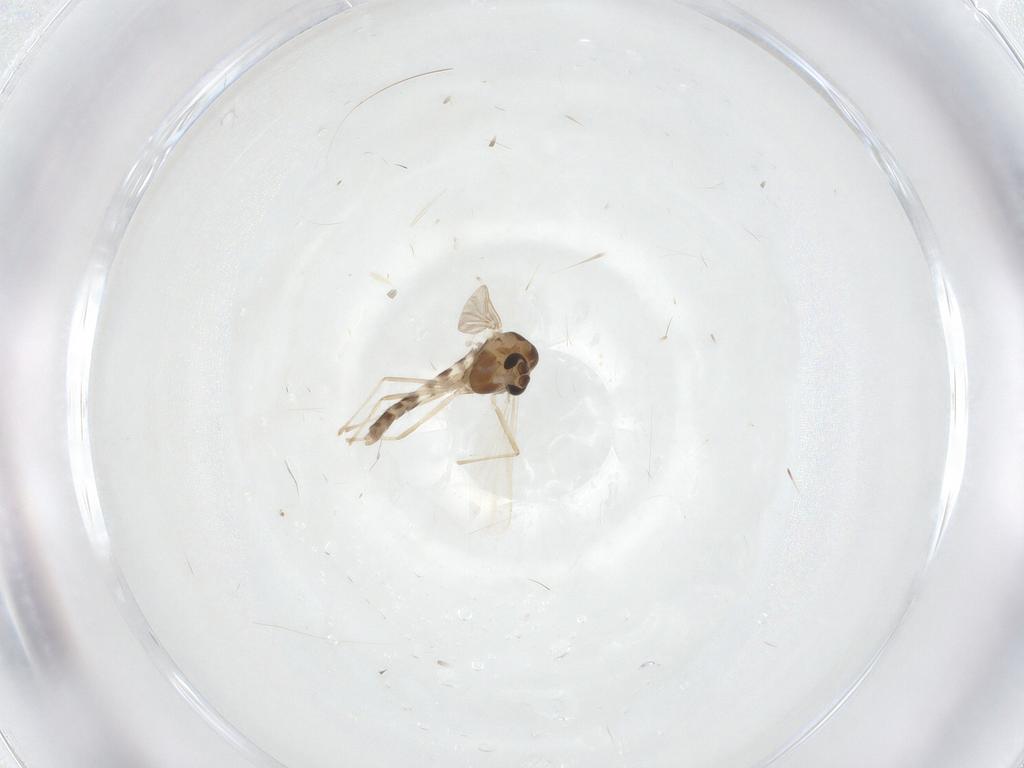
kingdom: Animalia
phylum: Arthropoda
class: Insecta
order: Diptera
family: Chironomidae
